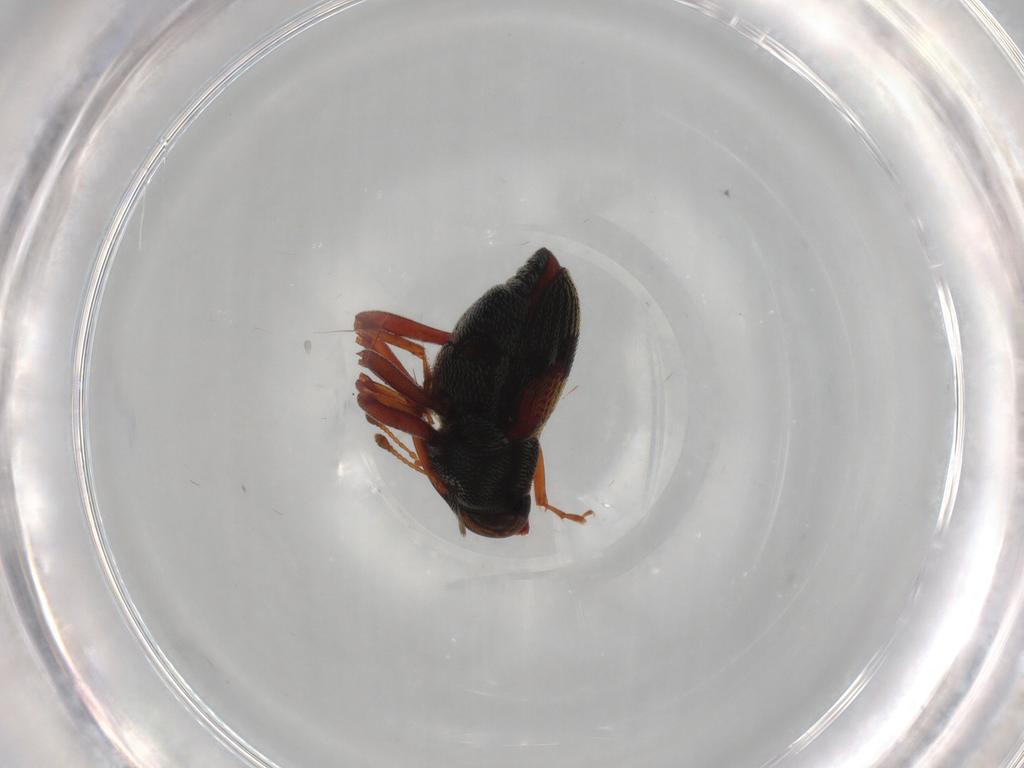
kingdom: Animalia
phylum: Arthropoda
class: Insecta
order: Coleoptera
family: Curculionidae
